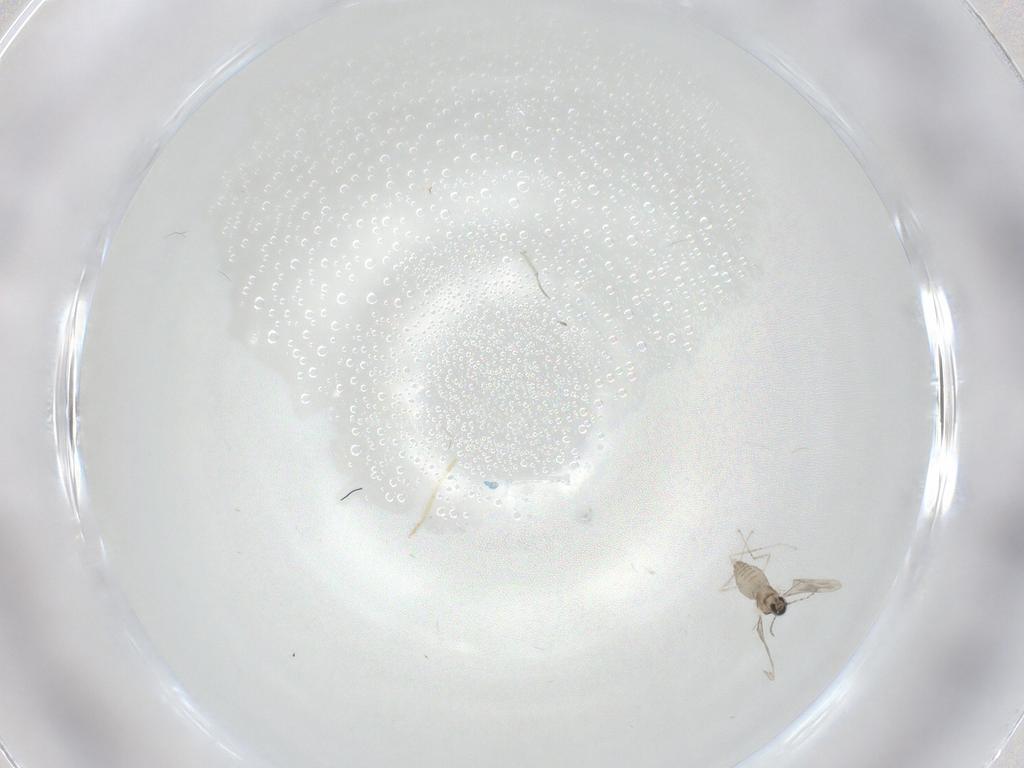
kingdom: Animalia
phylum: Arthropoda
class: Insecta
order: Diptera
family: Cecidomyiidae
